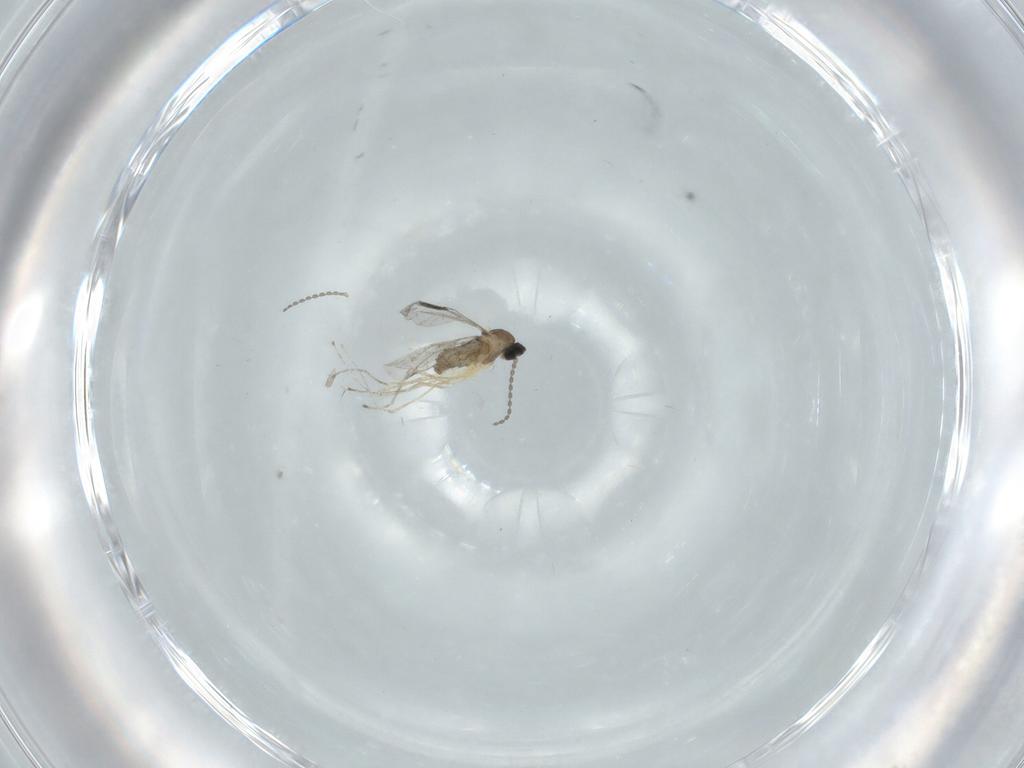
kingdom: Animalia
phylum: Arthropoda
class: Insecta
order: Diptera
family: Cecidomyiidae
